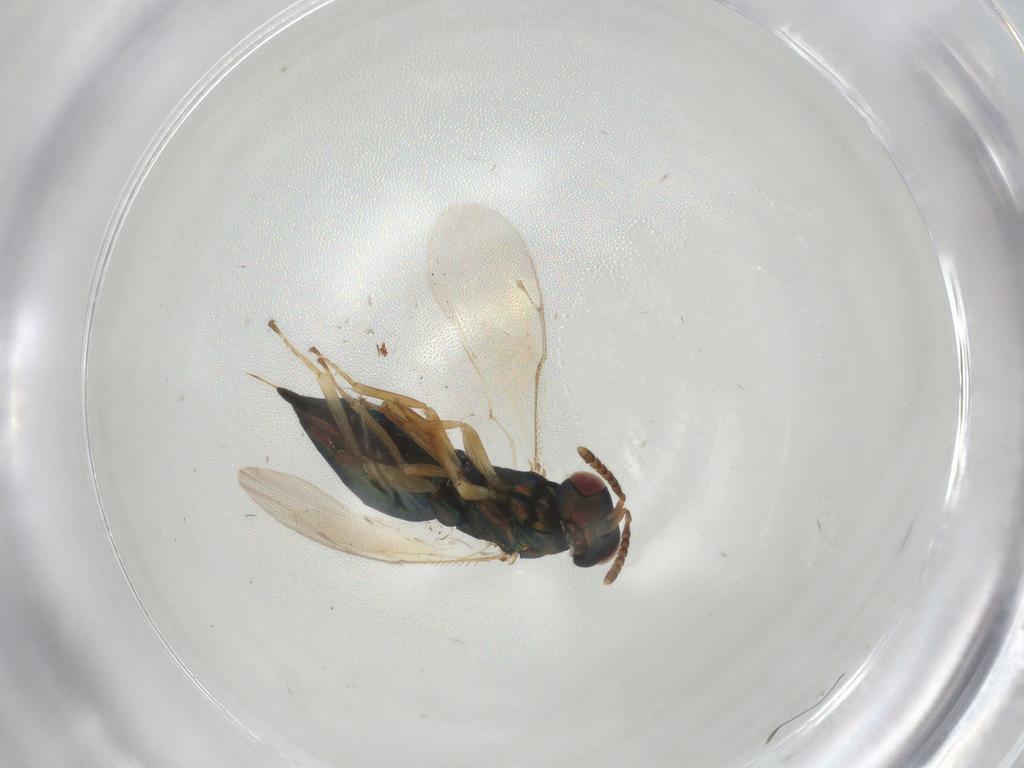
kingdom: Animalia
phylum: Arthropoda
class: Insecta
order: Hymenoptera
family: Pteromalidae
